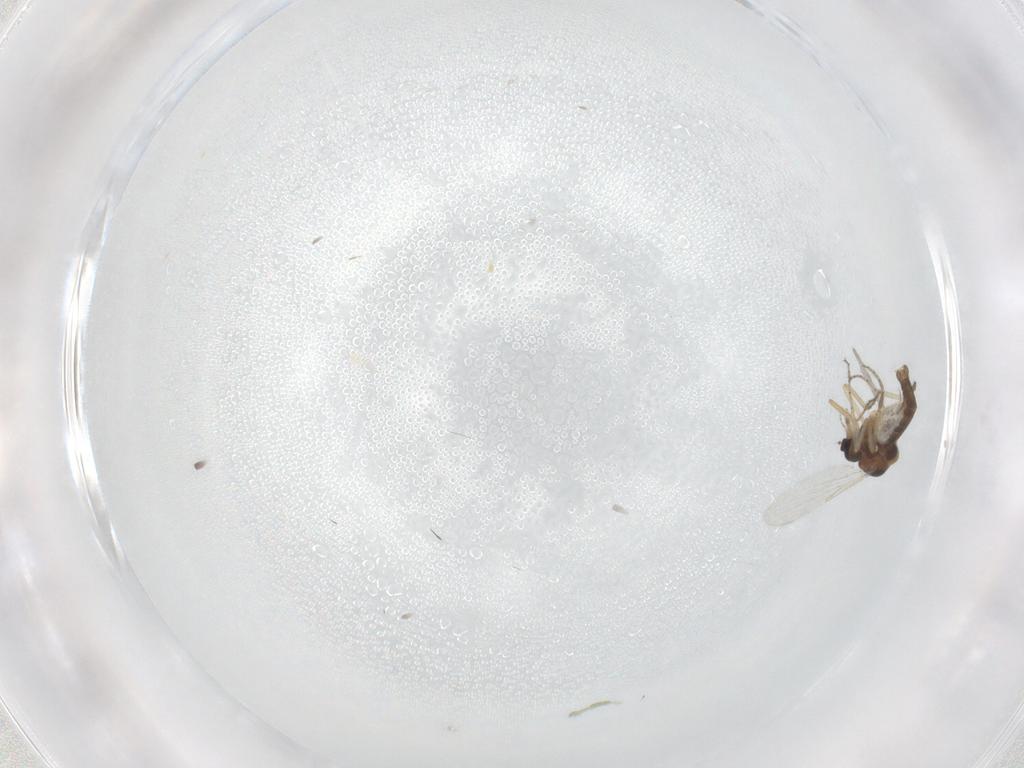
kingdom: Animalia
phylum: Arthropoda
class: Insecta
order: Diptera
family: Ceratopogonidae
